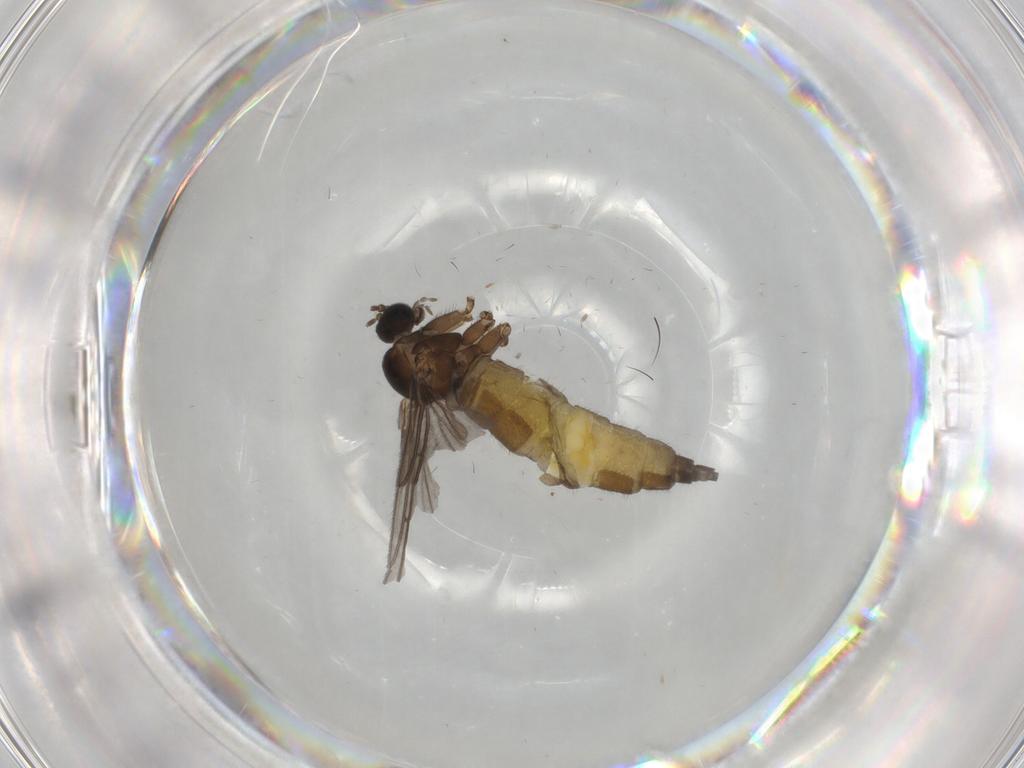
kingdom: Animalia
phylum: Arthropoda
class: Insecta
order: Diptera
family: Sciaridae
